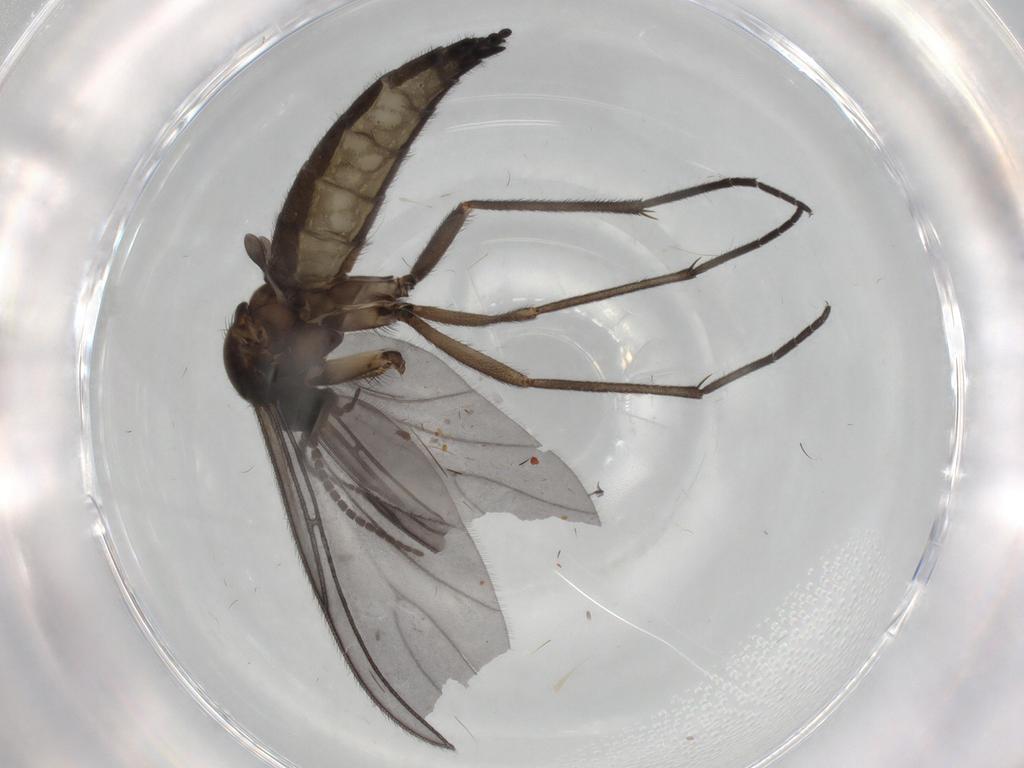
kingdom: Animalia
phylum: Arthropoda
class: Insecta
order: Diptera
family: Sciaridae
